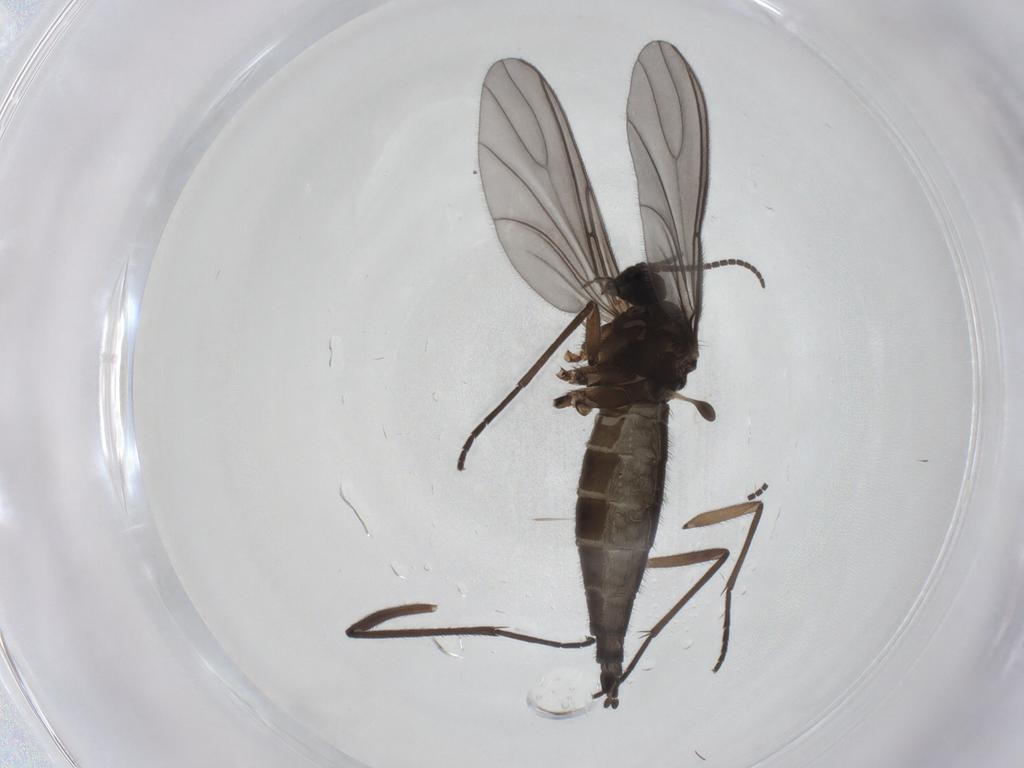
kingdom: Animalia
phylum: Arthropoda
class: Insecta
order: Diptera
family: Sciaridae
